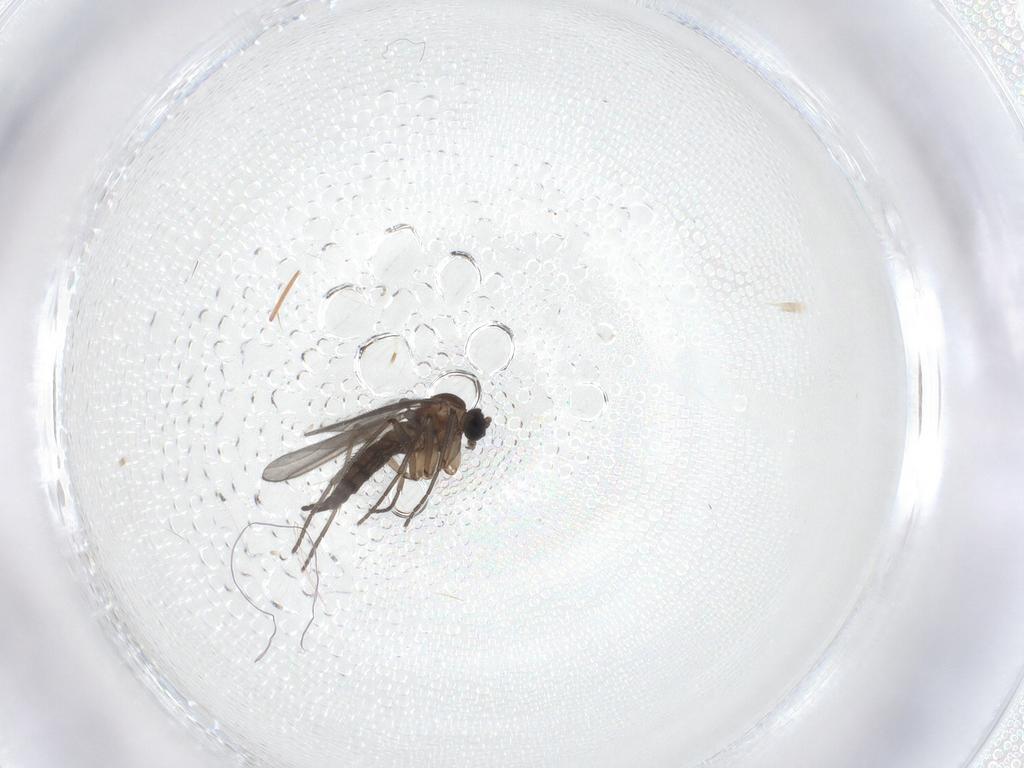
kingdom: Animalia
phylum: Arthropoda
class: Insecta
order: Diptera
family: Sciaridae
